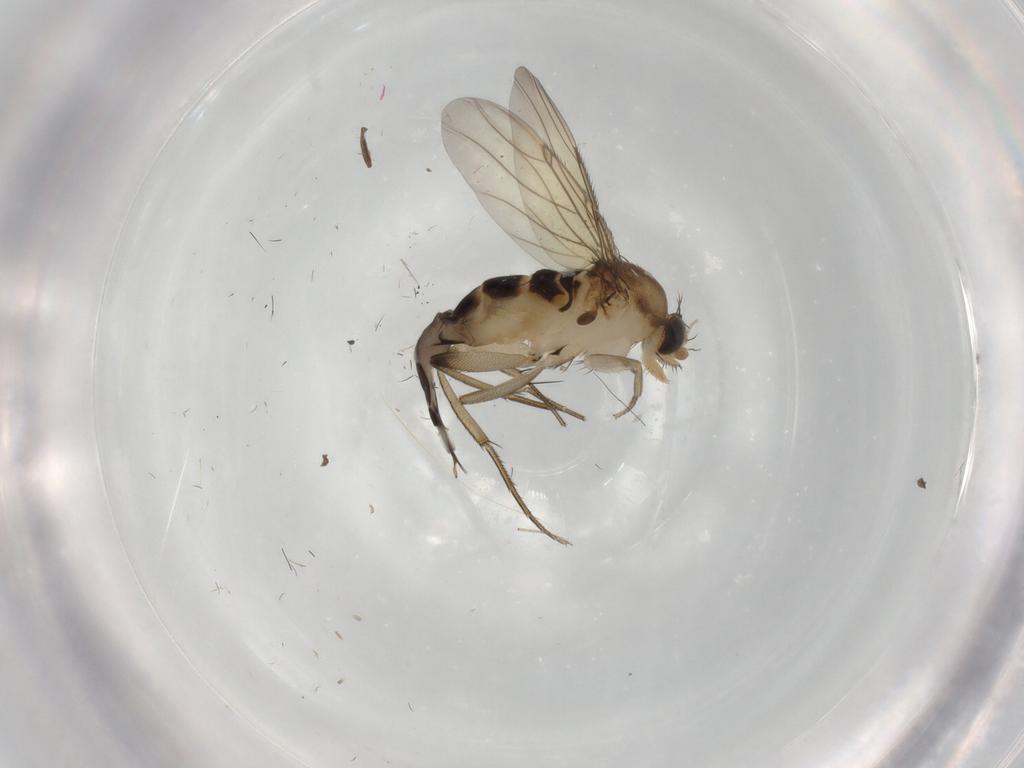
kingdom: Animalia
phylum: Arthropoda
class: Insecta
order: Diptera
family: Phoridae
